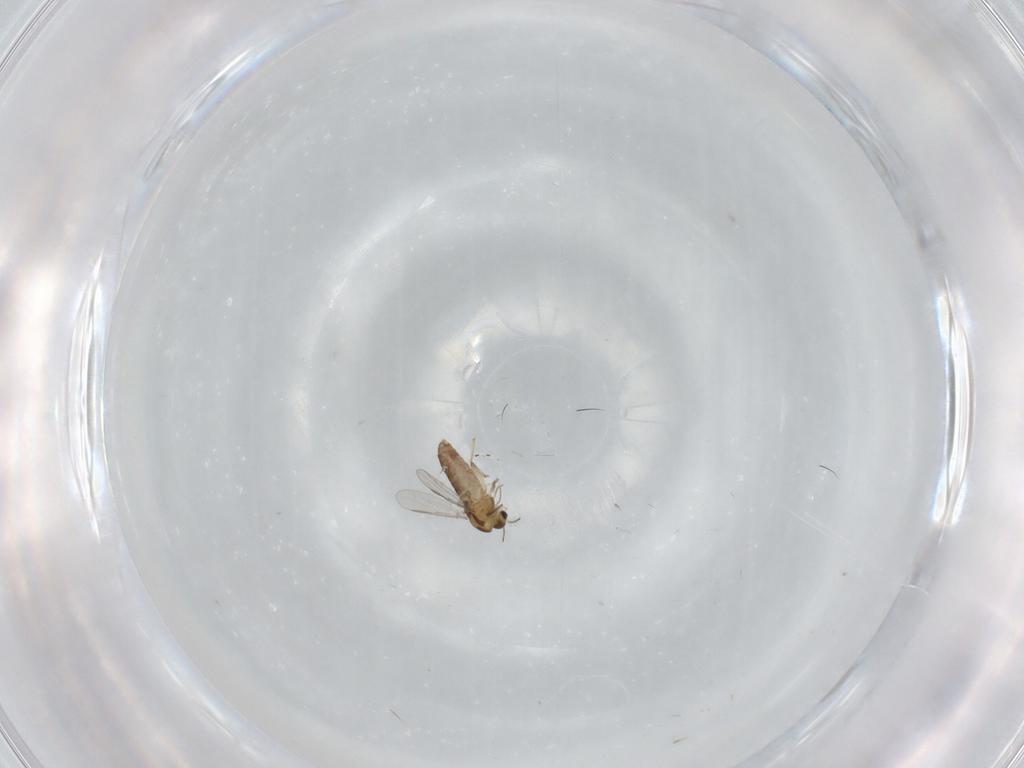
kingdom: Animalia
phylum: Arthropoda
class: Insecta
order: Diptera
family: Chironomidae
